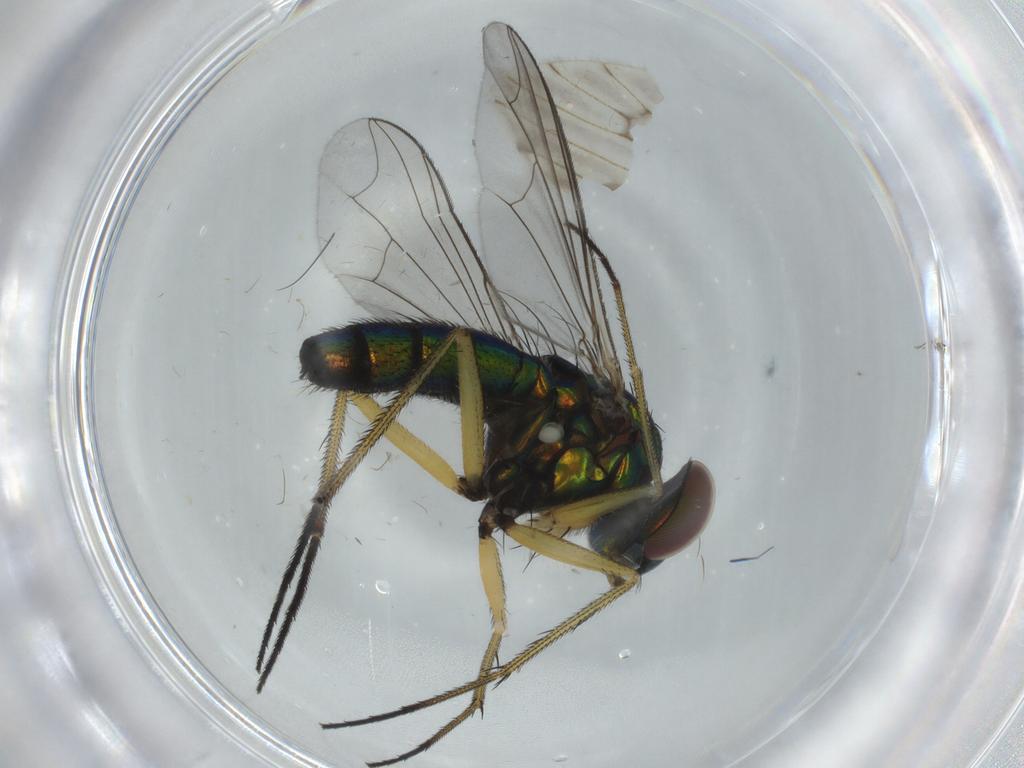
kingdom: Animalia
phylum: Arthropoda
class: Insecta
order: Diptera
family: Dolichopodidae
